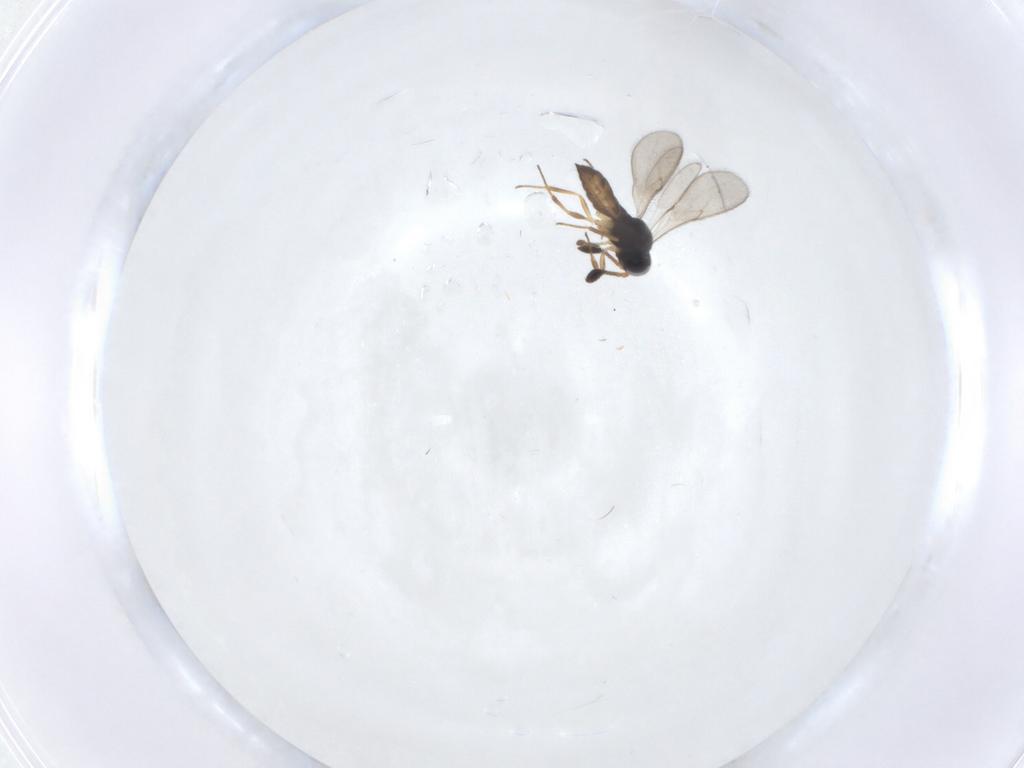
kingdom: Animalia
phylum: Arthropoda
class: Insecta
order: Hymenoptera
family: Scelionidae
